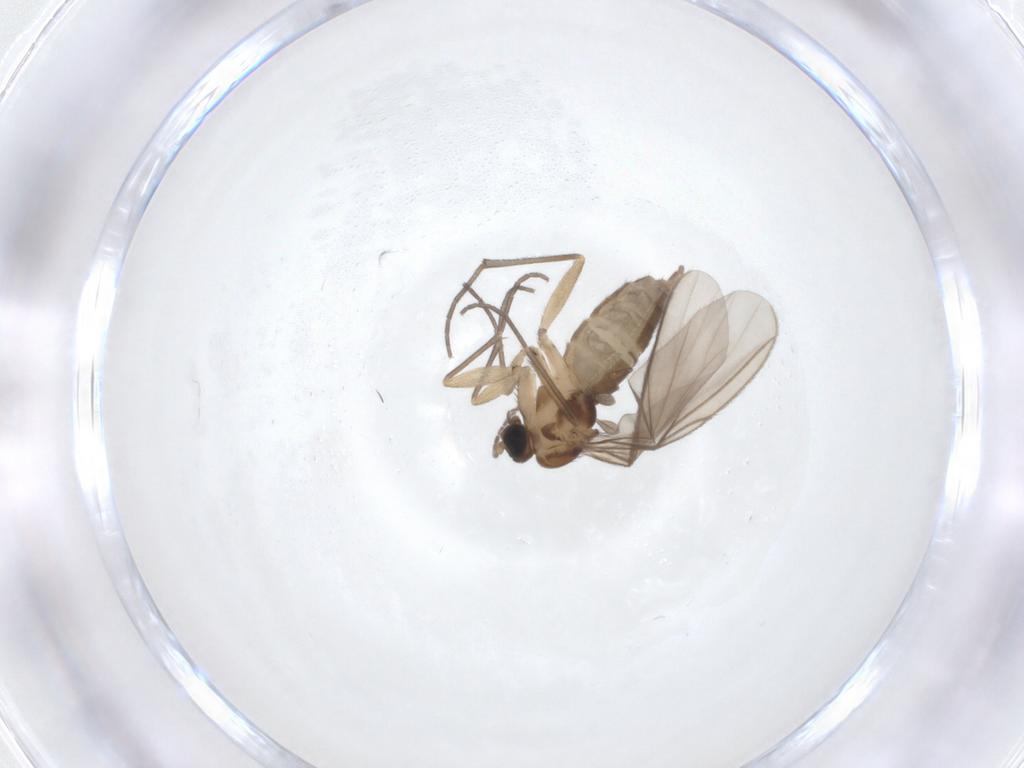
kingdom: Animalia
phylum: Arthropoda
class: Insecta
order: Diptera
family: Sciaridae
